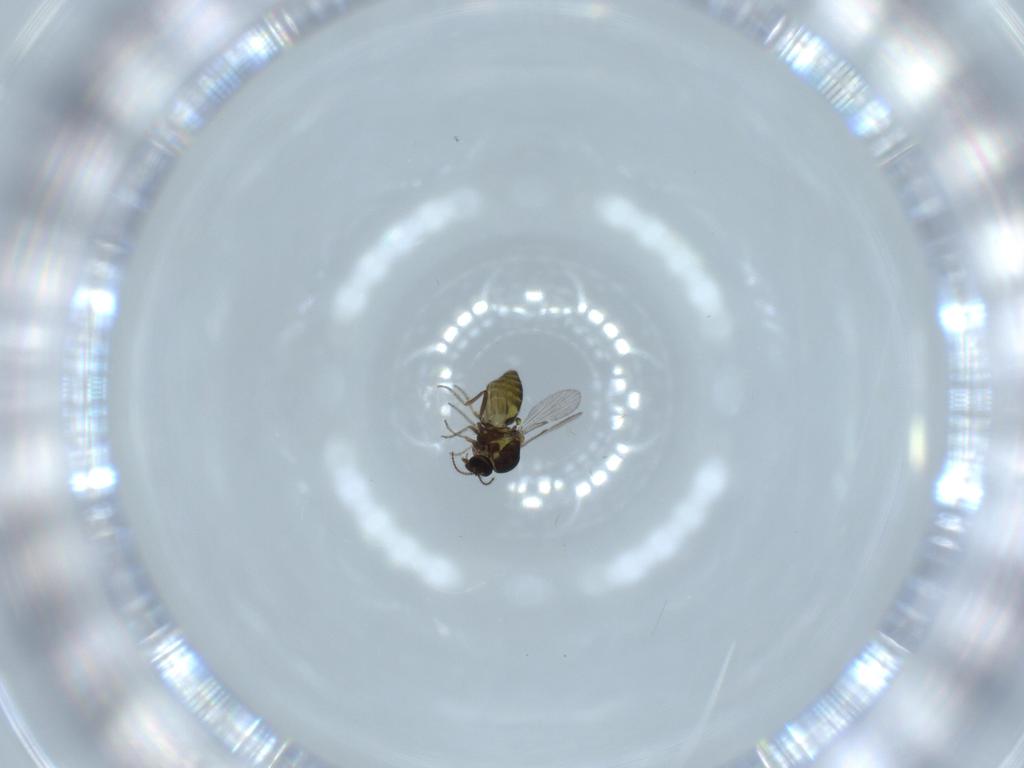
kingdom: Animalia
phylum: Arthropoda
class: Insecta
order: Diptera
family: Ceratopogonidae
